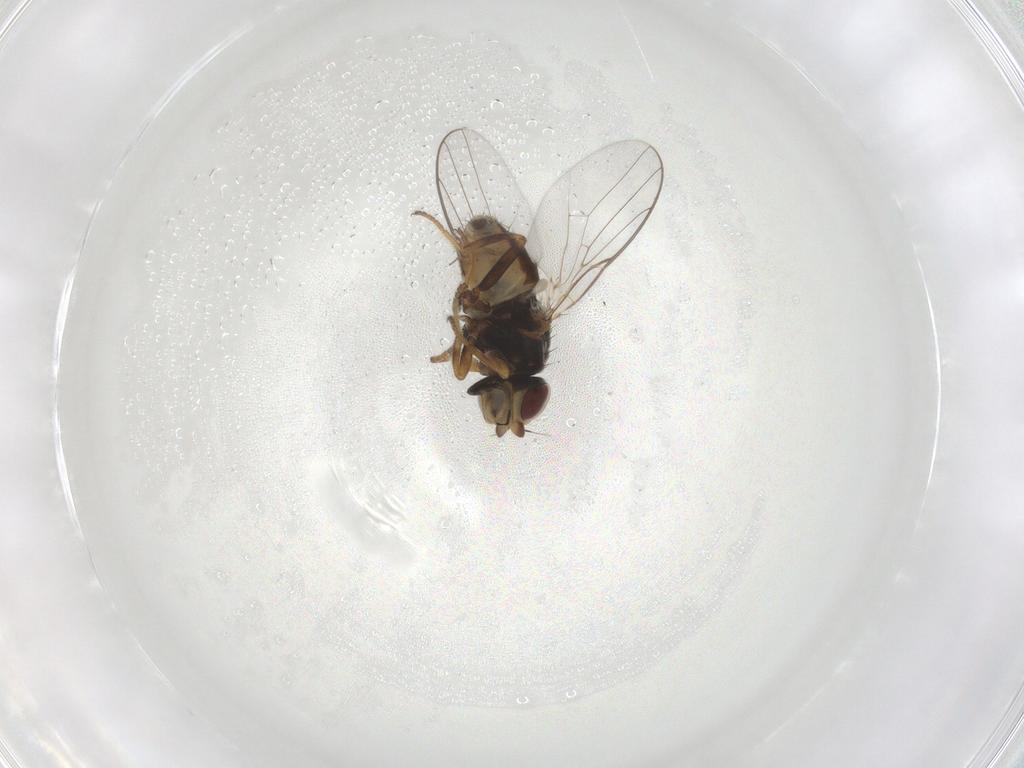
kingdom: Animalia
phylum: Arthropoda
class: Insecta
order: Diptera
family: Chloropidae
